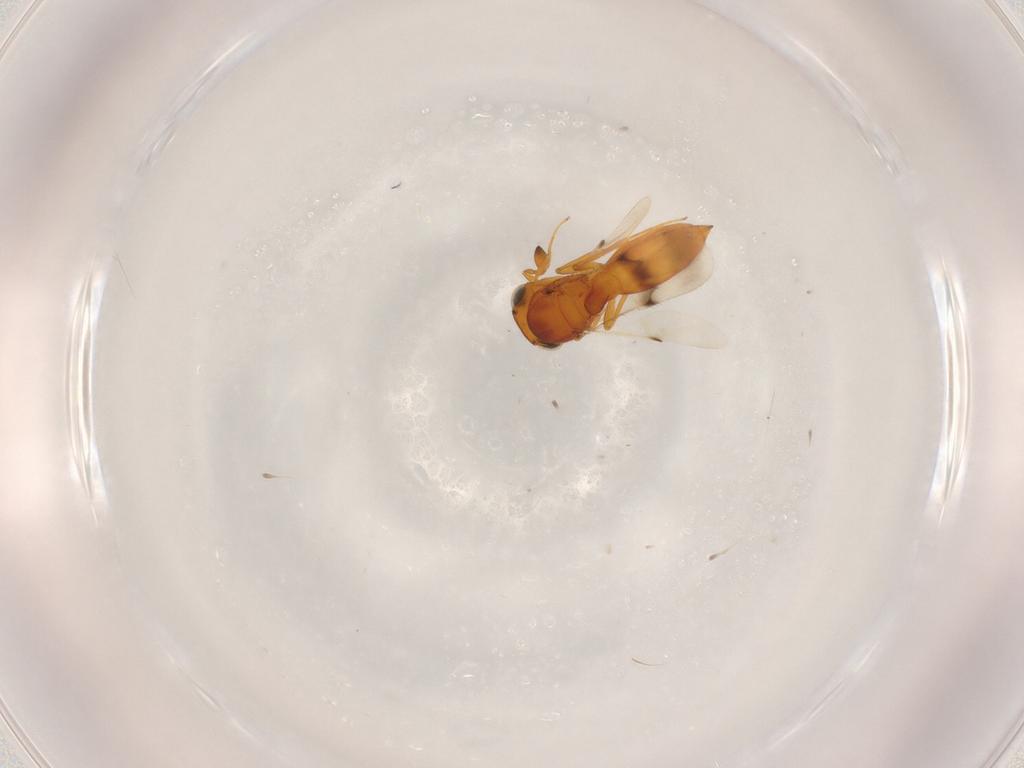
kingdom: Animalia
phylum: Arthropoda
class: Insecta
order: Hymenoptera
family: Scelionidae
